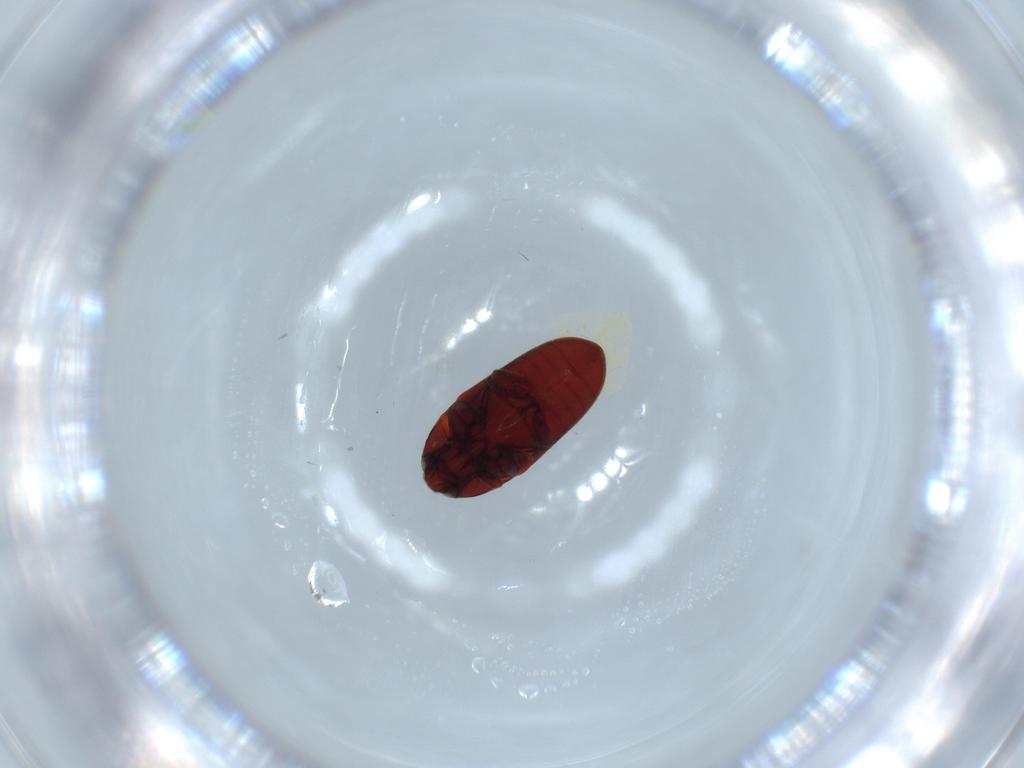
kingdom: Animalia
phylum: Arthropoda
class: Insecta
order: Coleoptera
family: Throscidae
